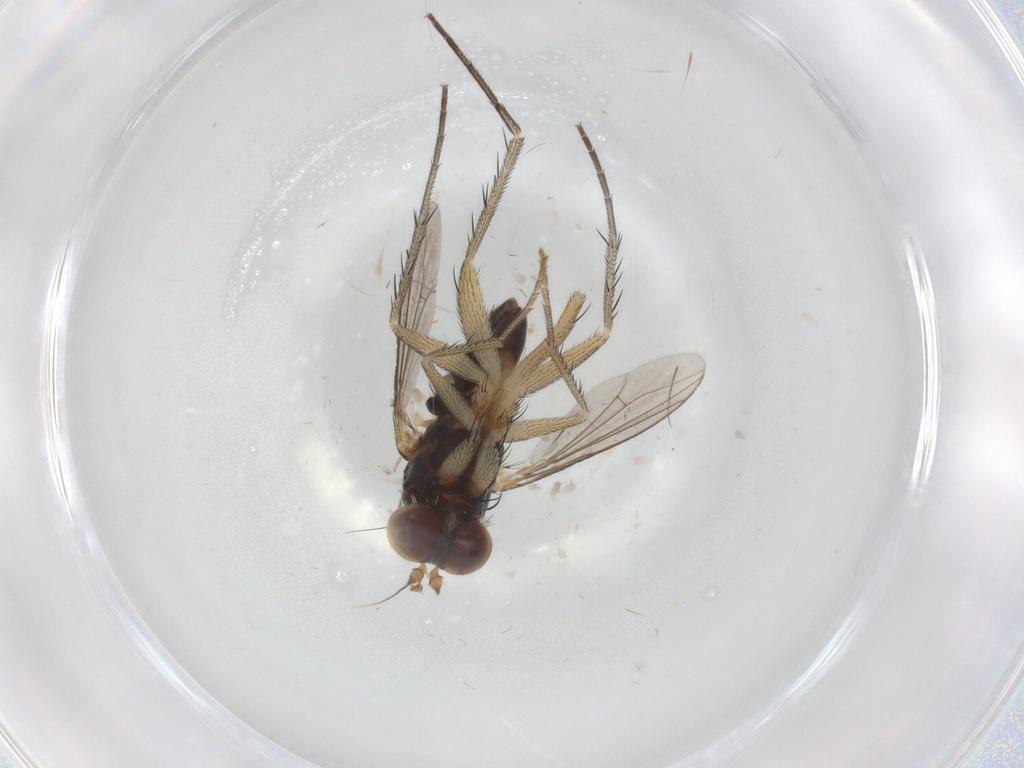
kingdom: Animalia
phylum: Arthropoda
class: Insecta
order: Diptera
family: Dolichopodidae
